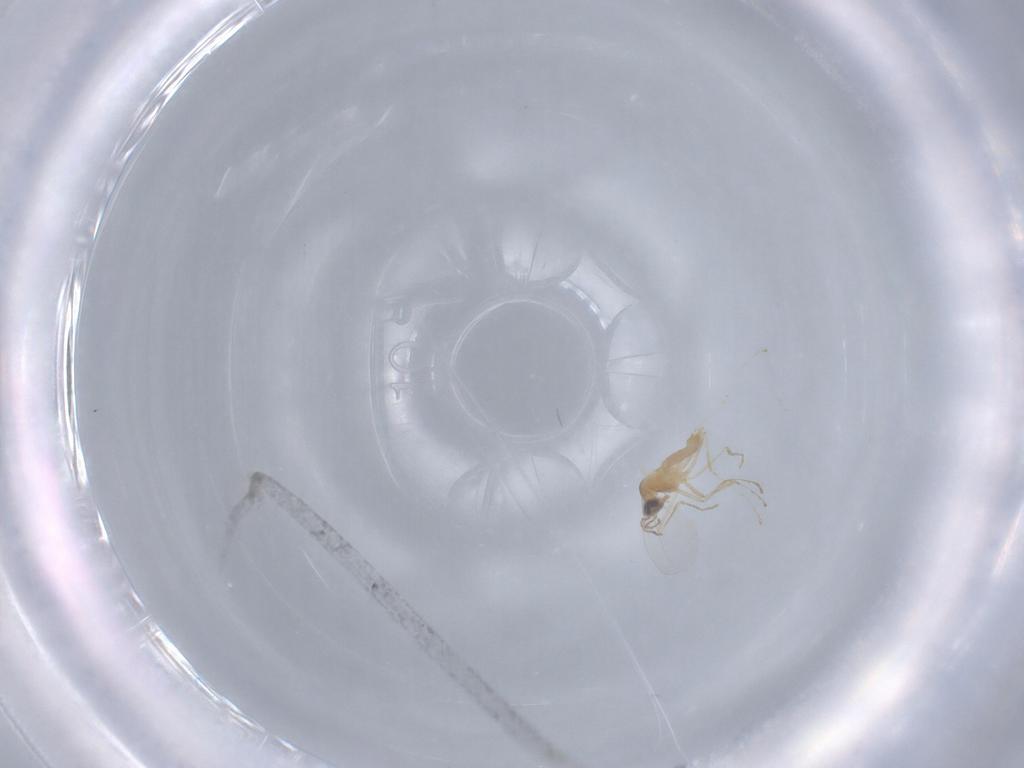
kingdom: Animalia
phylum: Arthropoda
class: Insecta
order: Diptera
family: Cecidomyiidae
